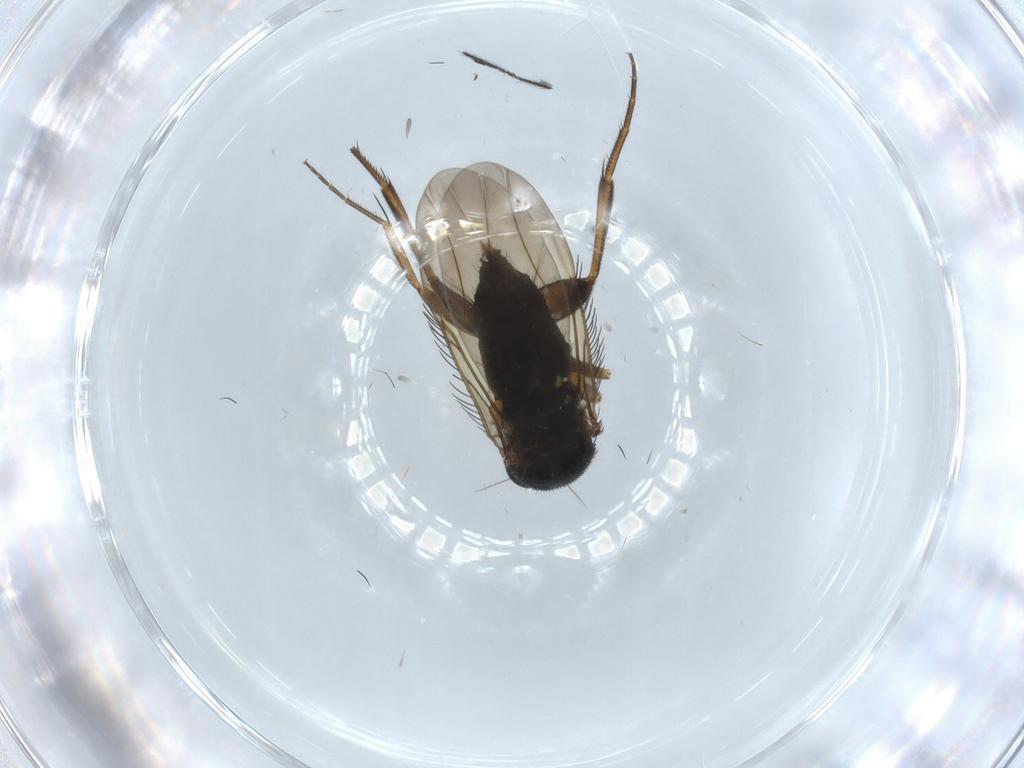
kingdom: Animalia
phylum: Arthropoda
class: Insecta
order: Diptera
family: Phoridae
